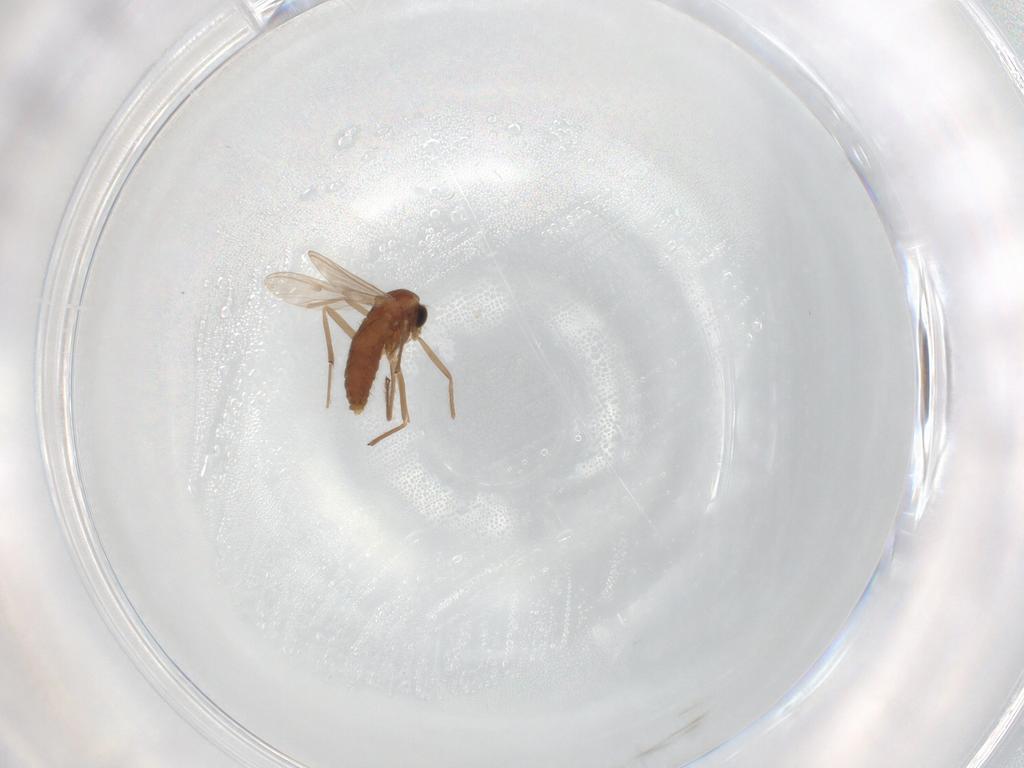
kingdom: Animalia
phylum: Arthropoda
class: Insecta
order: Diptera
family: Chironomidae
